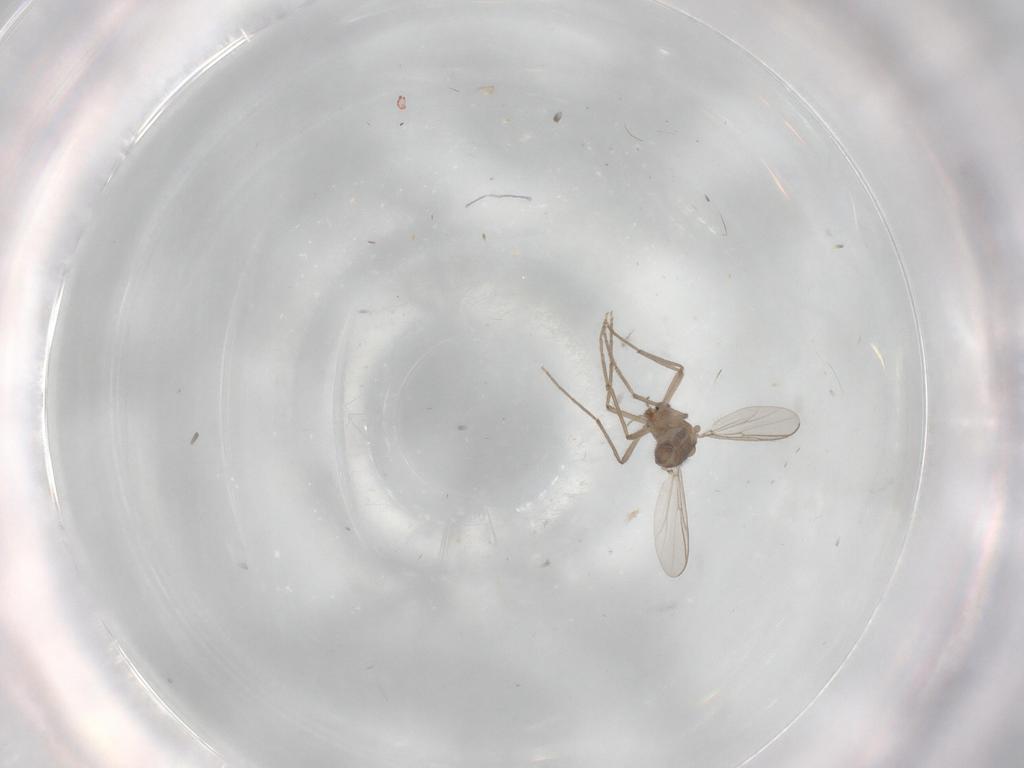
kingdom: Animalia
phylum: Arthropoda
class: Insecta
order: Diptera
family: Chironomidae
